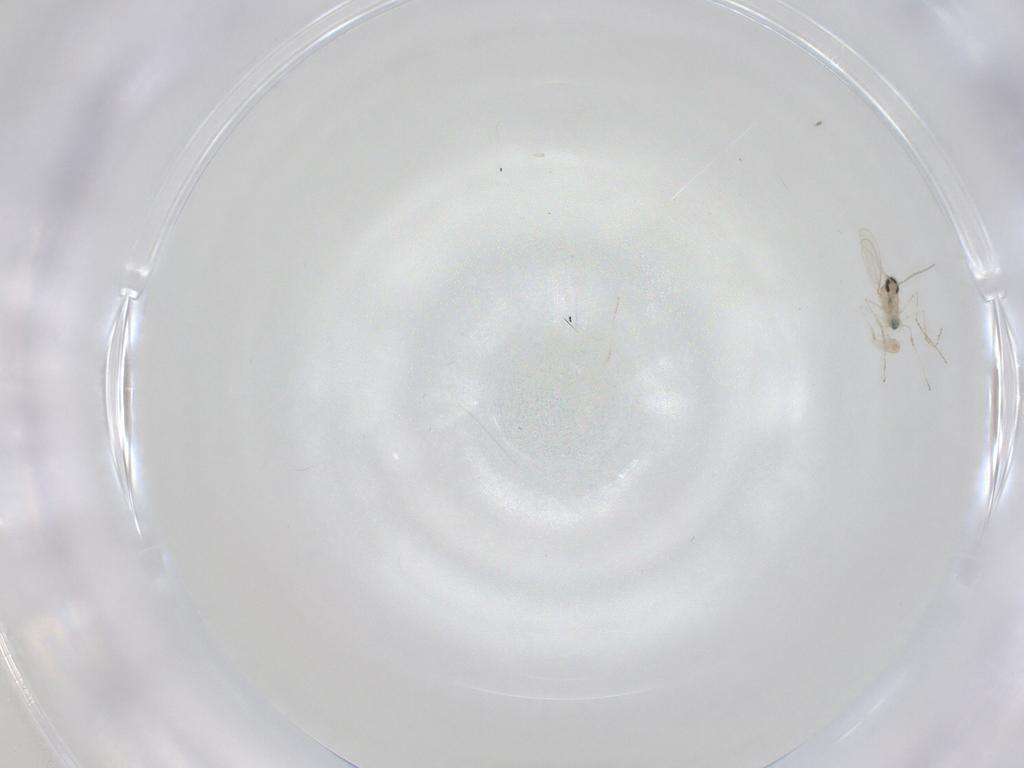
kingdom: Animalia
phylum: Arthropoda
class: Insecta
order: Diptera
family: Cecidomyiidae
